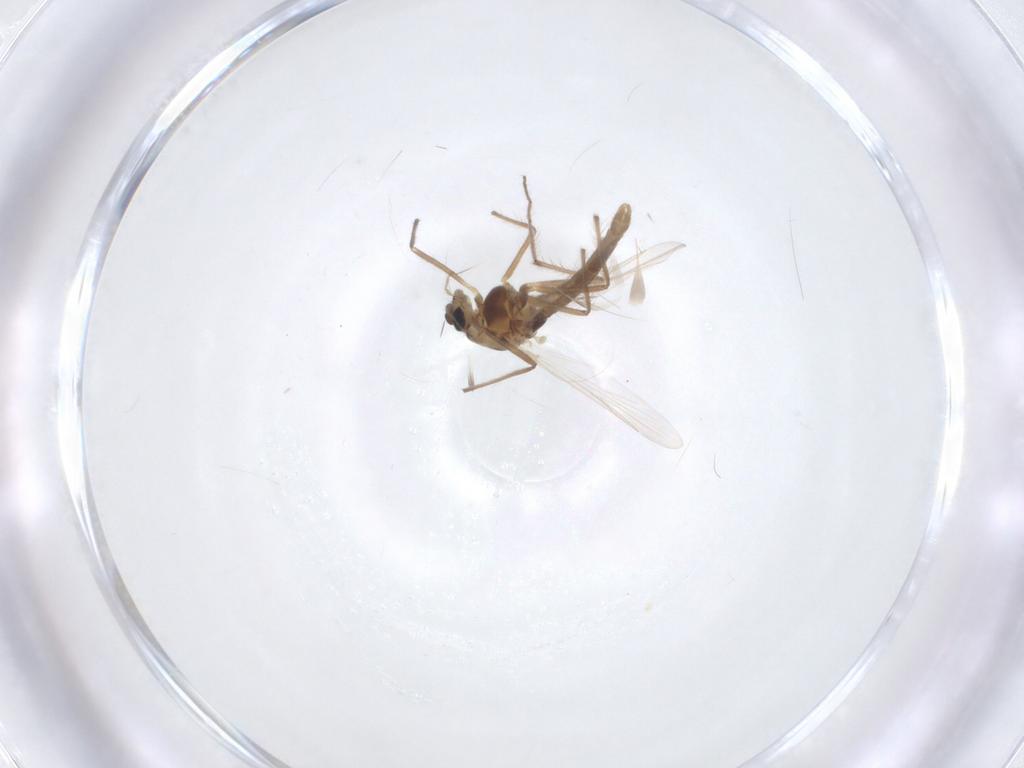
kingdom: Animalia
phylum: Arthropoda
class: Insecta
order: Diptera
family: Chironomidae
